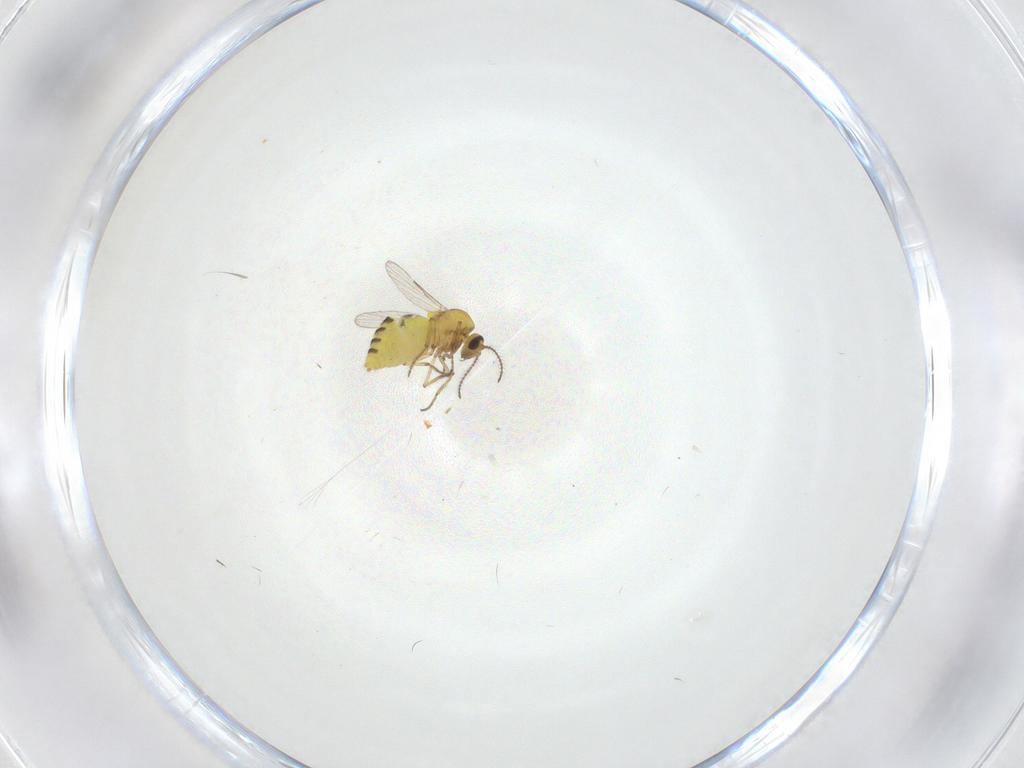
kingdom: Animalia
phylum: Arthropoda
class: Insecta
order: Diptera
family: Ceratopogonidae
